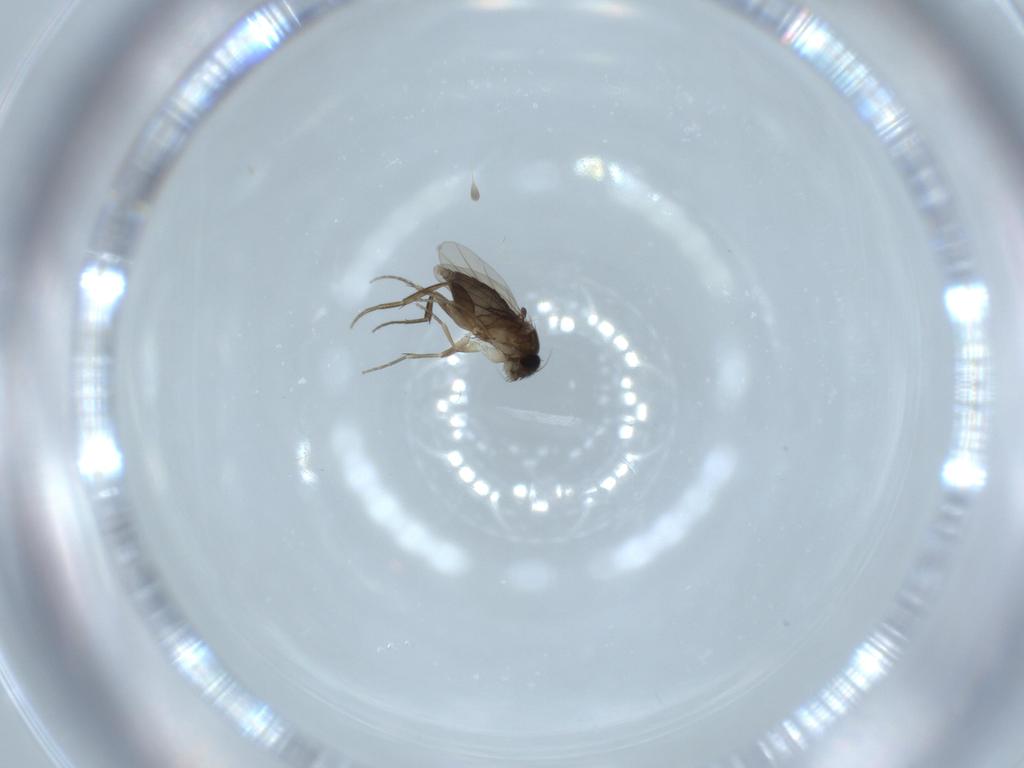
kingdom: Animalia
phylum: Arthropoda
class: Insecta
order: Diptera
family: Phoridae
